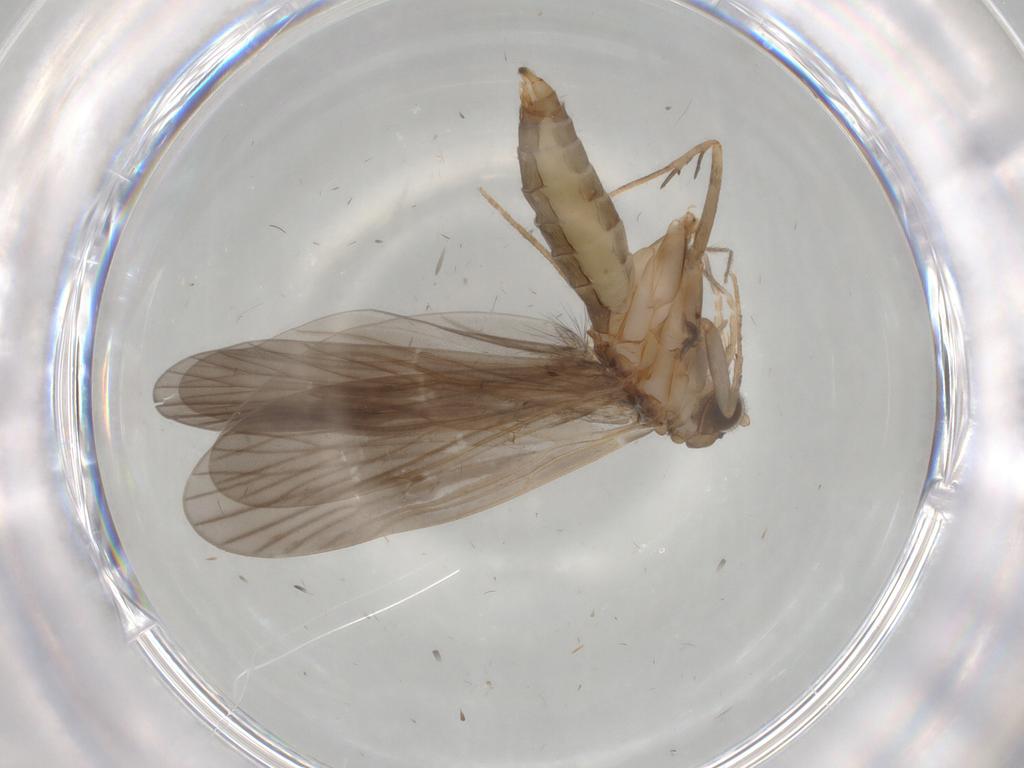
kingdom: Animalia
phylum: Arthropoda
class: Insecta
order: Trichoptera
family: Philopotamidae
